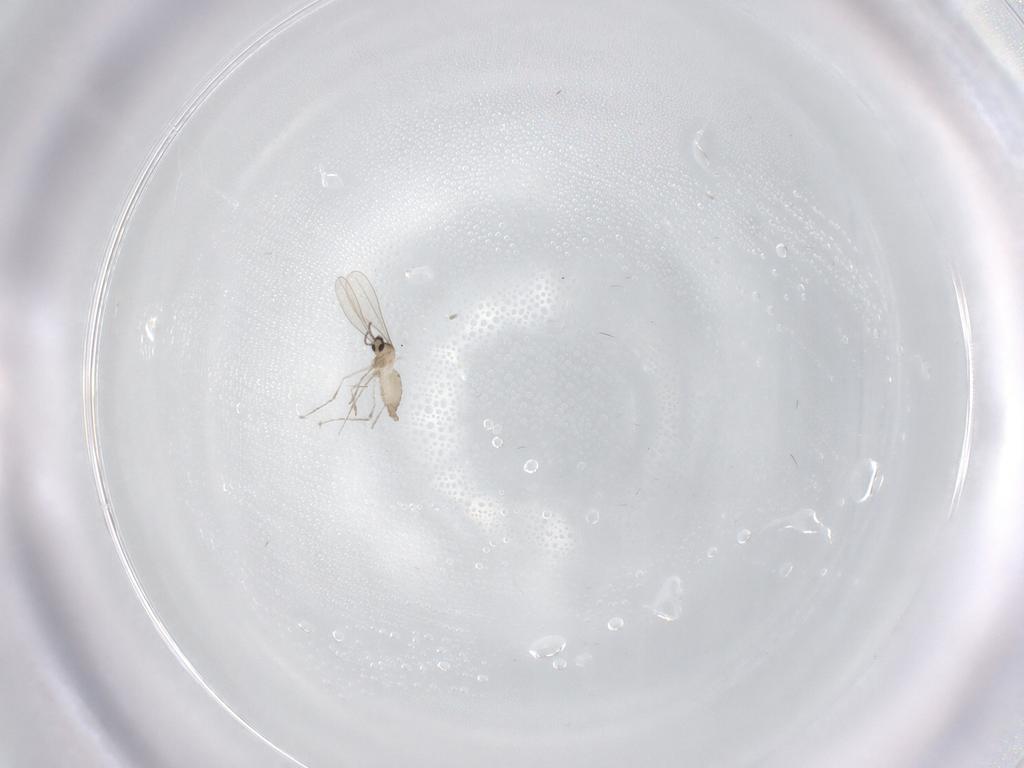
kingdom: Animalia
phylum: Arthropoda
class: Insecta
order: Diptera
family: Cecidomyiidae
